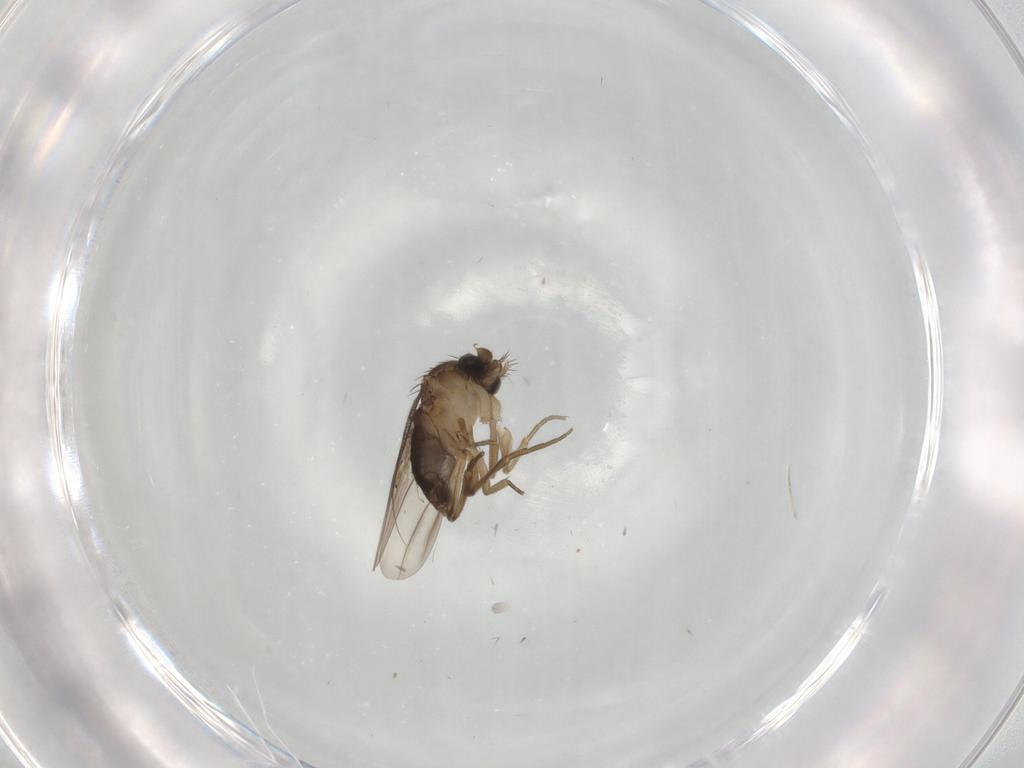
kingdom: Animalia
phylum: Arthropoda
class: Insecta
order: Diptera
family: Phoridae
